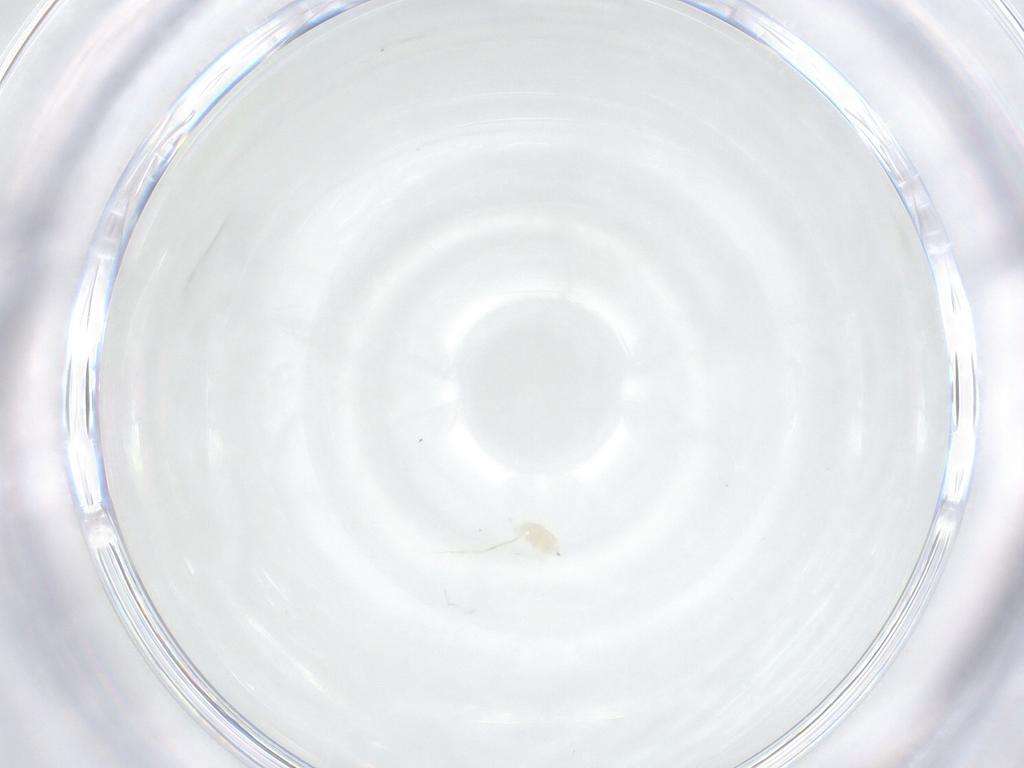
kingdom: Animalia
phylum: Arthropoda
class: Arachnida
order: Trombidiformes
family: Eupodidae
